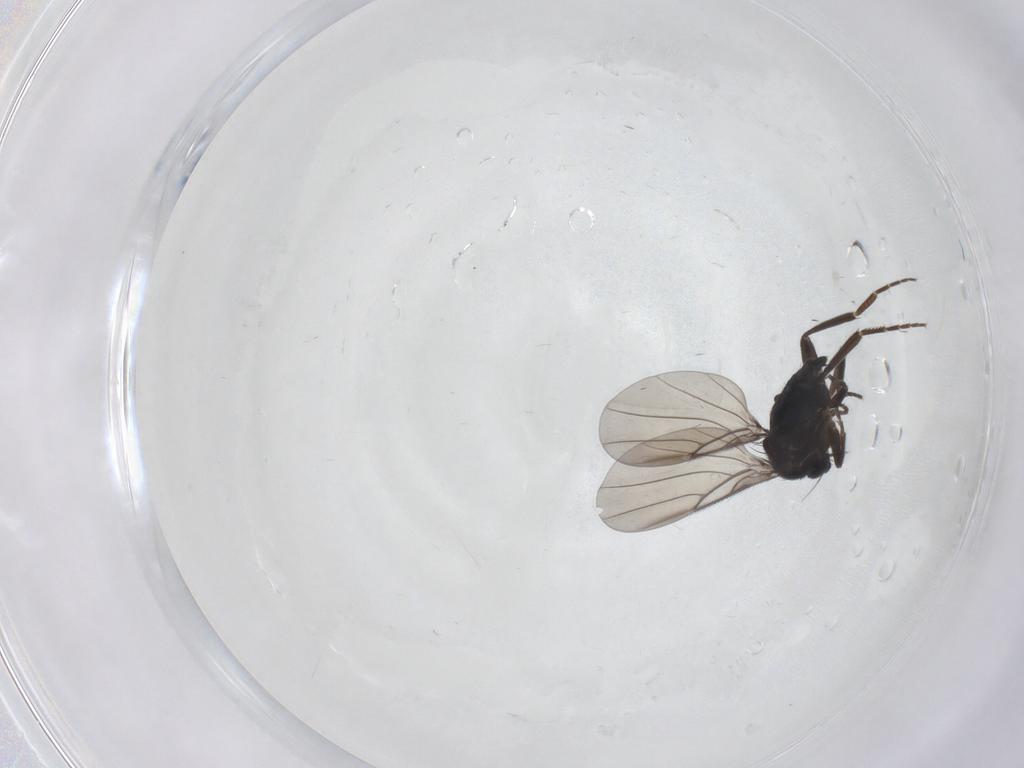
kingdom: Animalia
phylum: Arthropoda
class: Insecta
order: Diptera
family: Phoridae
